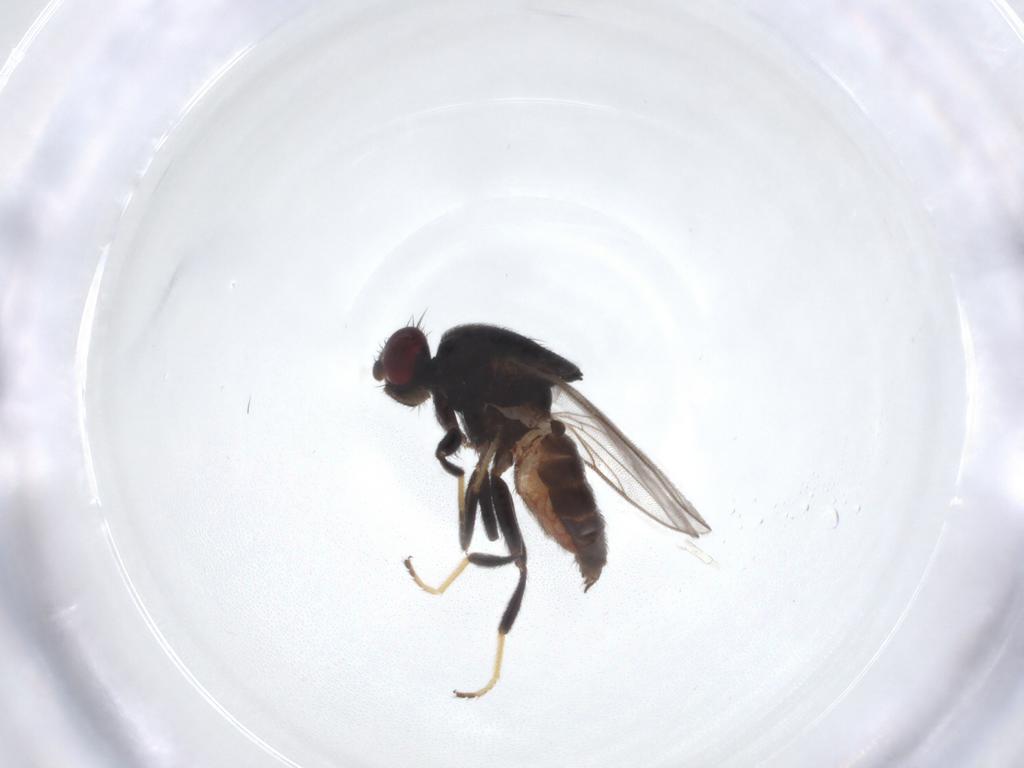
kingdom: Animalia
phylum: Arthropoda
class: Insecta
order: Diptera
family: Chloropidae
